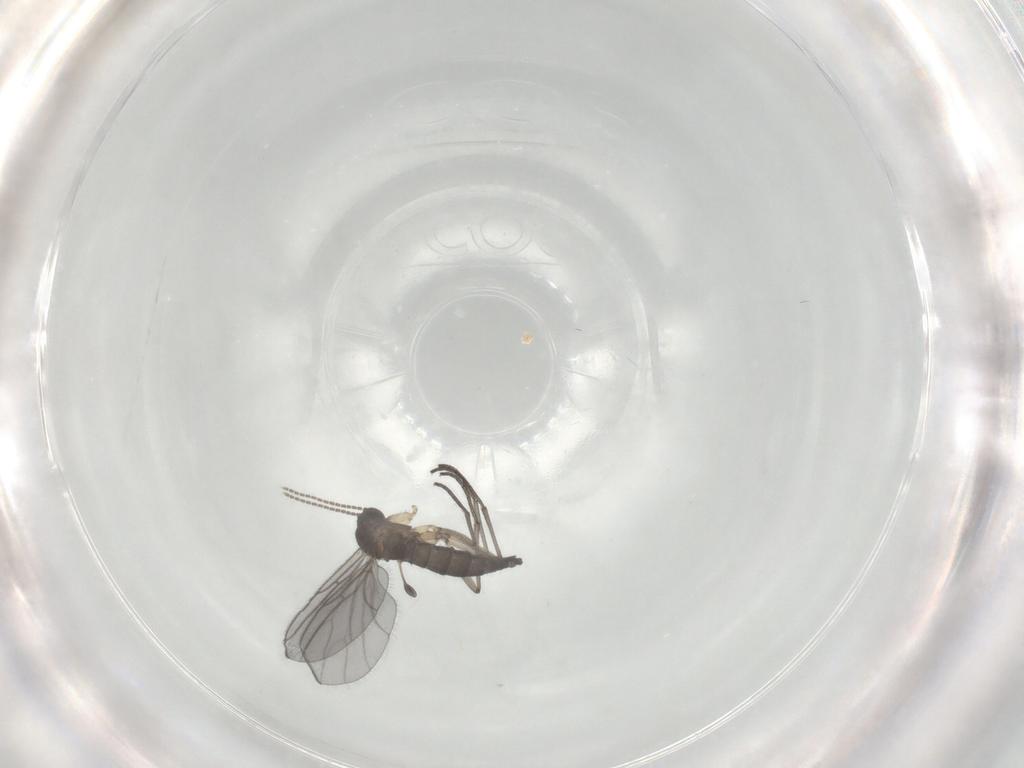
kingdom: Animalia
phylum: Arthropoda
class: Insecta
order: Diptera
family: Sciaridae
